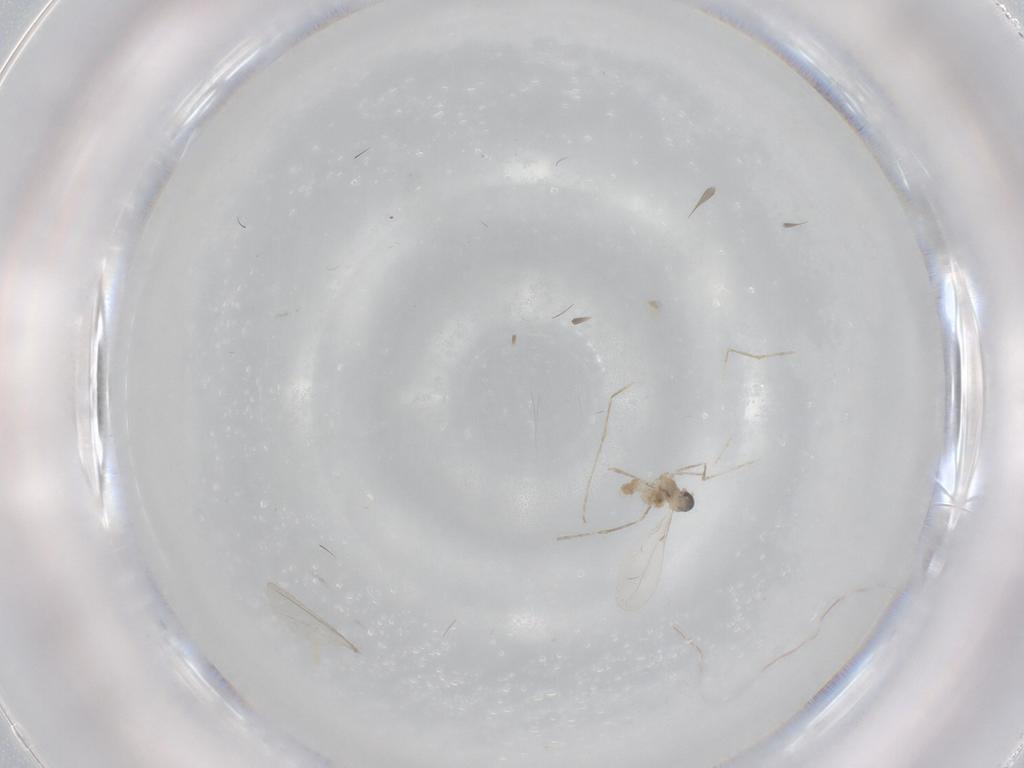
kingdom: Animalia
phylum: Arthropoda
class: Insecta
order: Diptera
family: Cecidomyiidae
